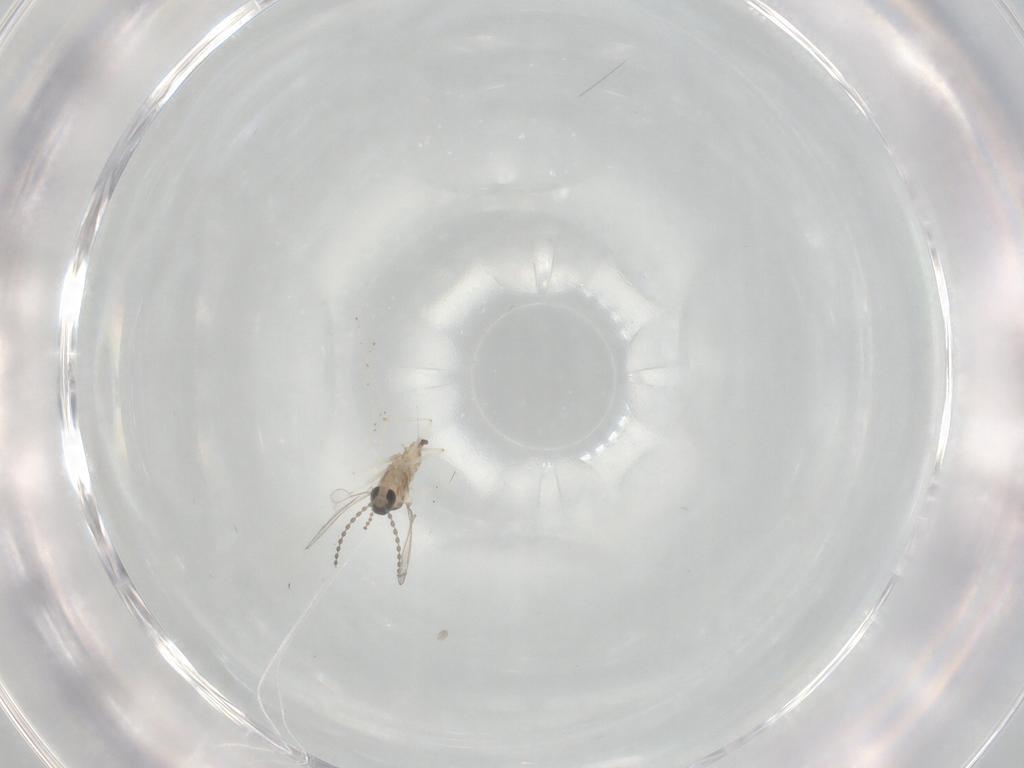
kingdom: Animalia
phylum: Arthropoda
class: Insecta
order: Diptera
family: Cecidomyiidae
